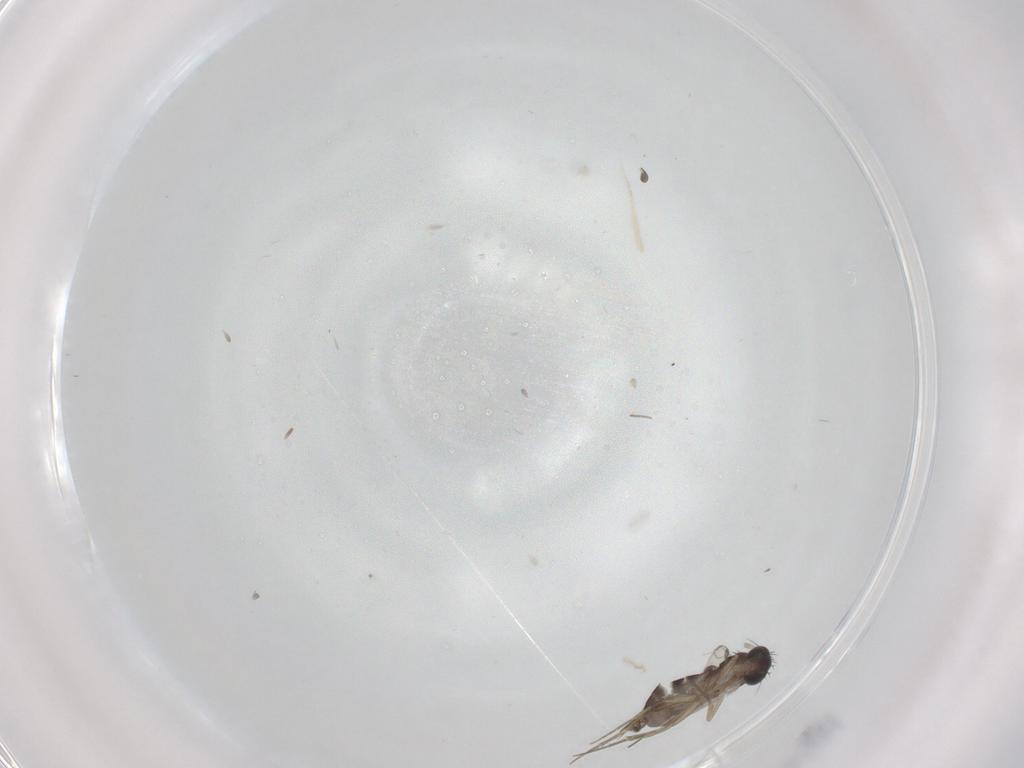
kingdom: Animalia
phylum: Arthropoda
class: Insecta
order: Diptera
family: Phoridae
